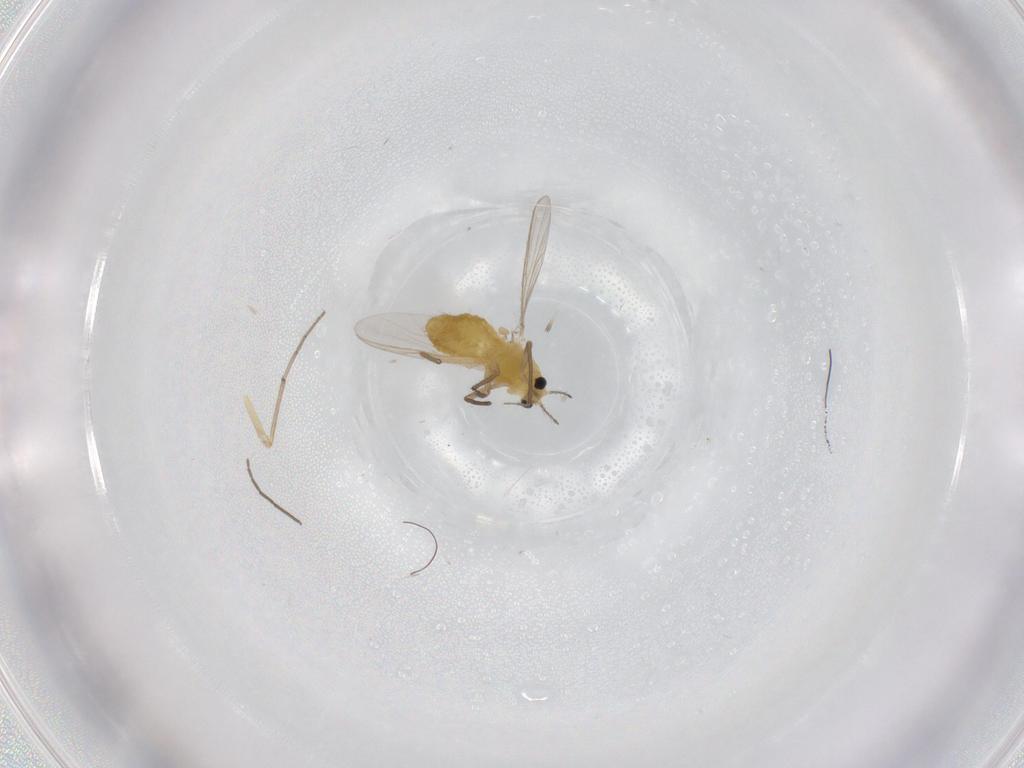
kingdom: Animalia
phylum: Arthropoda
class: Insecta
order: Diptera
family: Chironomidae
